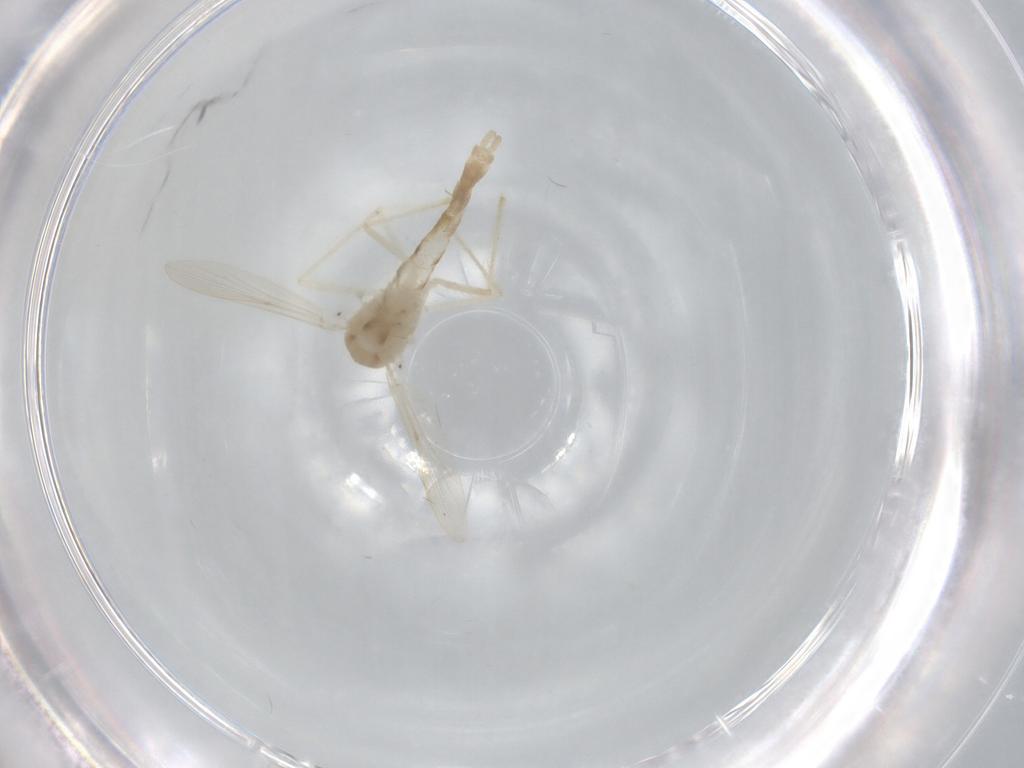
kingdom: Animalia
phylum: Arthropoda
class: Insecta
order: Diptera
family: Chironomidae
